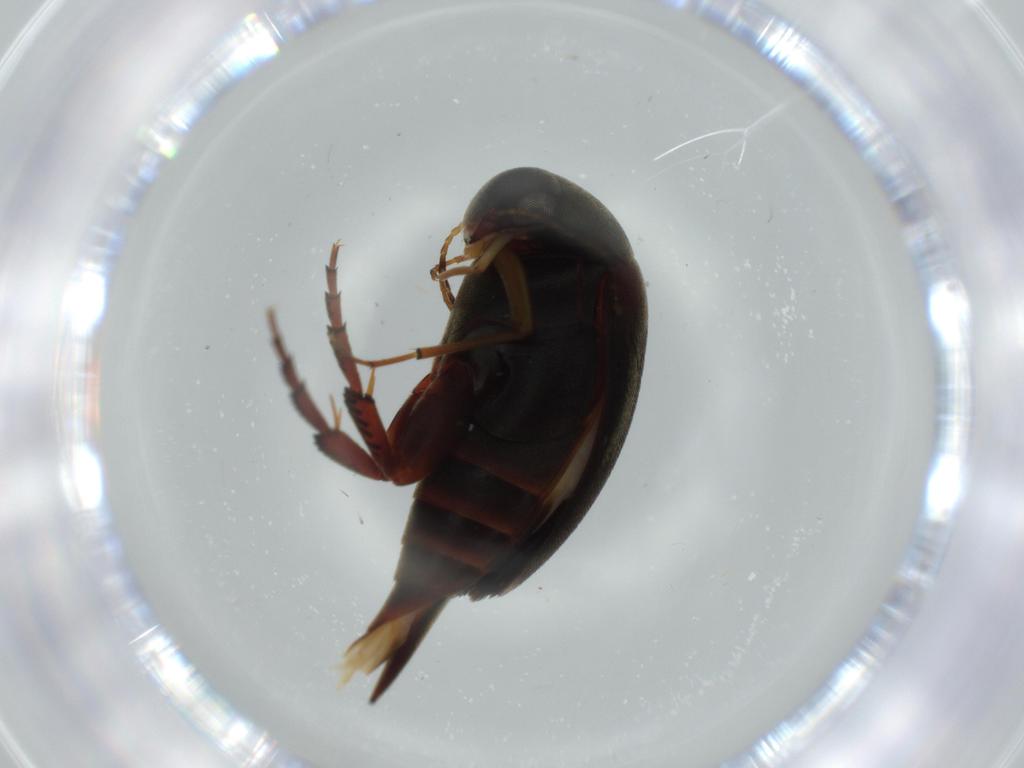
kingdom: Animalia
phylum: Arthropoda
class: Insecta
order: Coleoptera
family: Mordellidae
